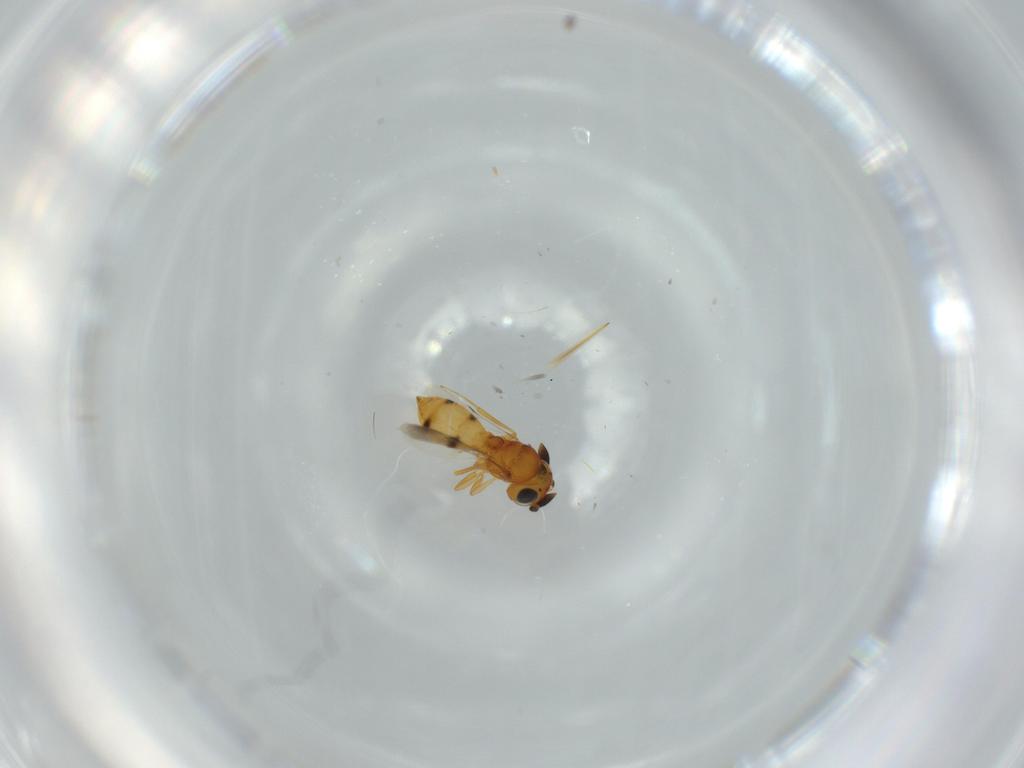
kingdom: Animalia
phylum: Arthropoda
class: Insecta
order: Hymenoptera
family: Scelionidae
